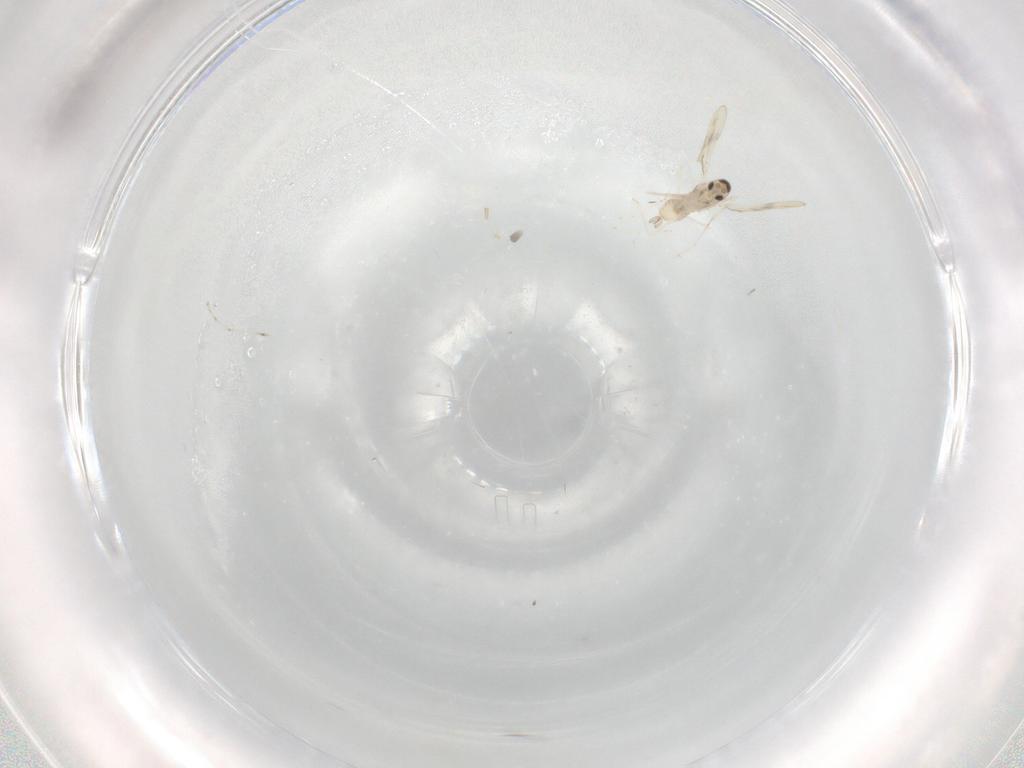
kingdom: Animalia
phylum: Arthropoda
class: Insecta
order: Diptera
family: Cecidomyiidae
